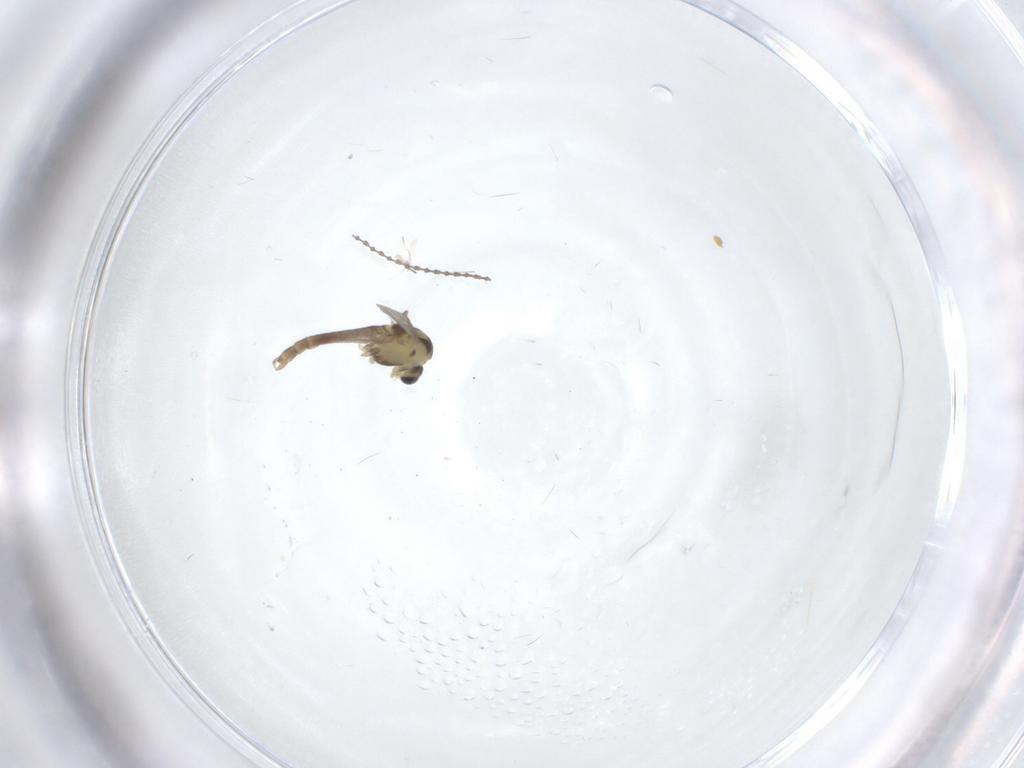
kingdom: Animalia
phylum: Arthropoda
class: Insecta
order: Diptera
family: Chironomidae
